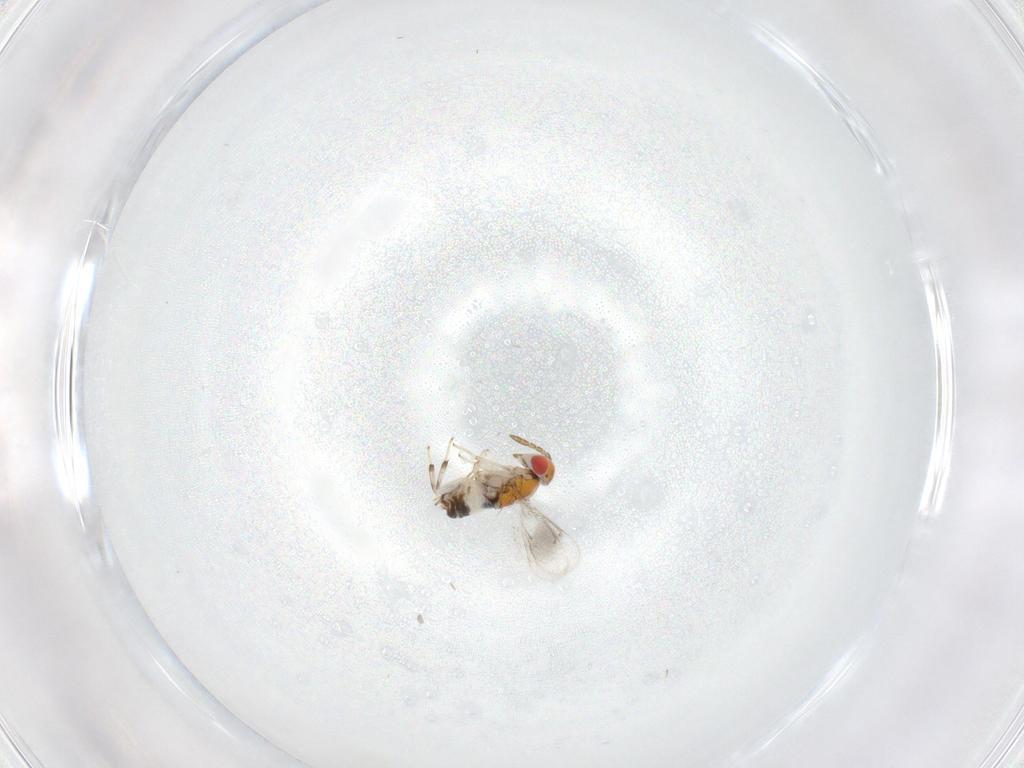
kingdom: Animalia
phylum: Arthropoda
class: Insecta
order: Hymenoptera
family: Aphelinidae
